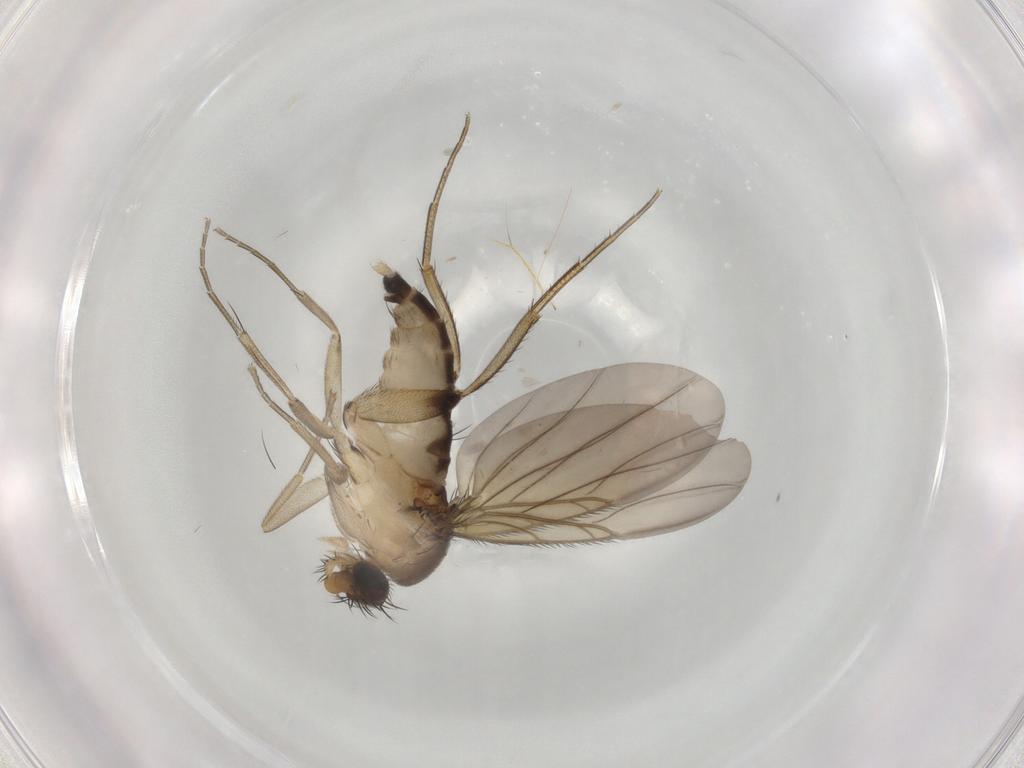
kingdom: Animalia
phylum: Arthropoda
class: Insecta
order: Diptera
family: Phoridae
